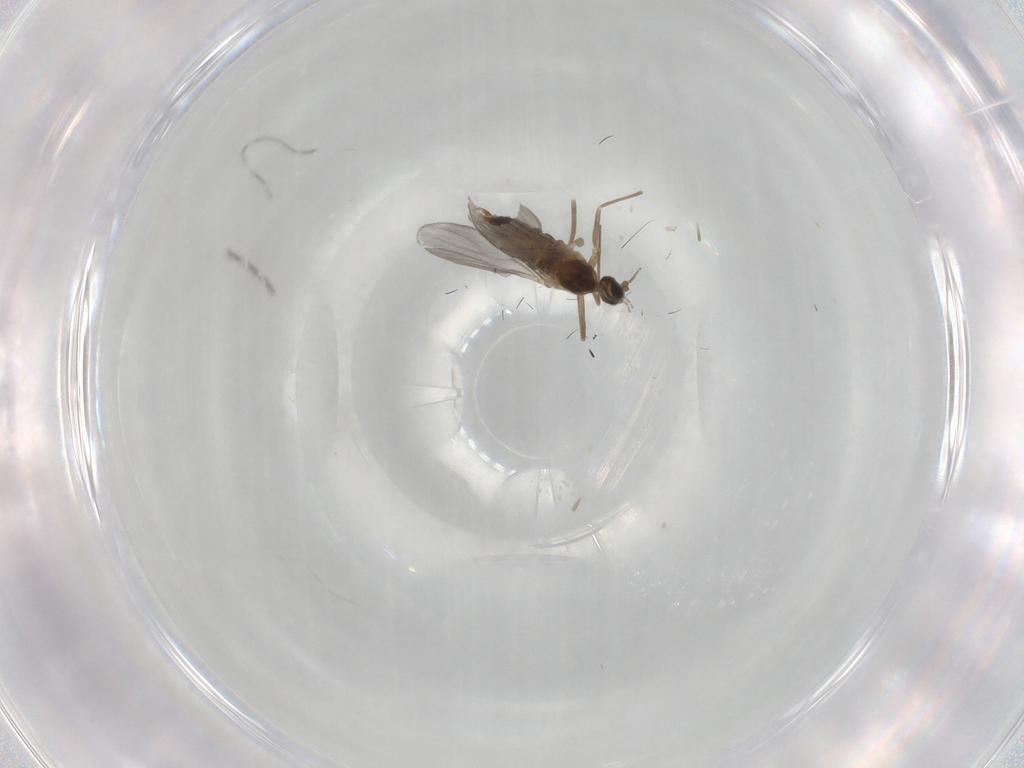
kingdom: Animalia
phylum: Arthropoda
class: Insecta
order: Diptera
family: Cecidomyiidae
